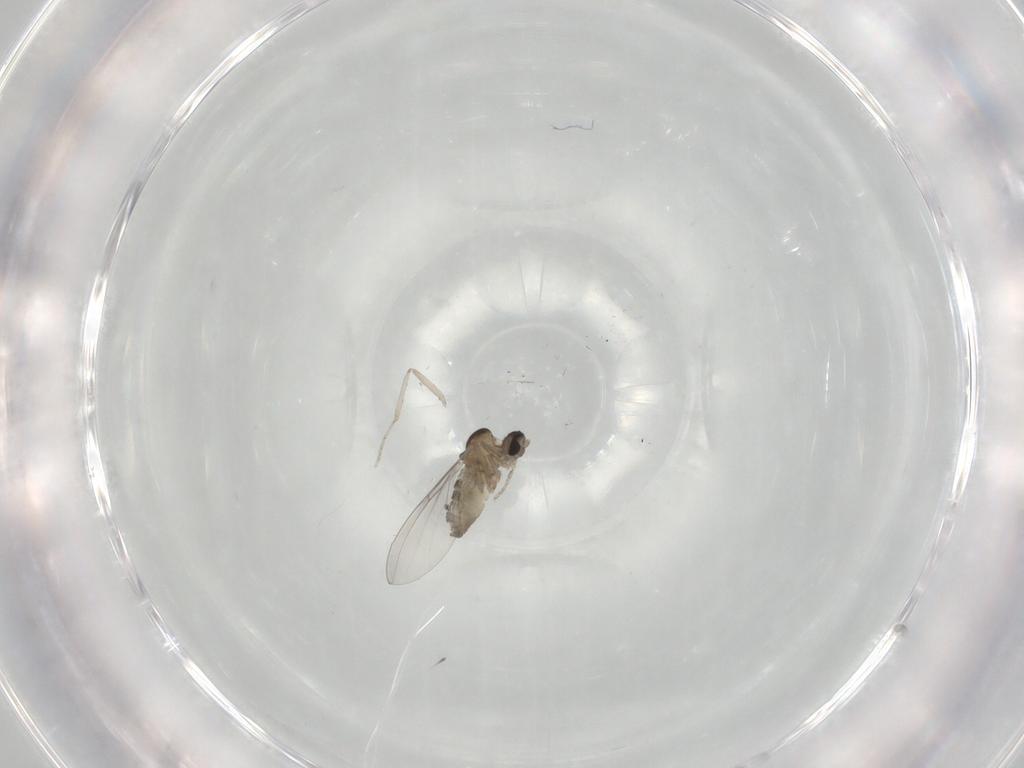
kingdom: Animalia
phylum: Arthropoda
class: Insecta
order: Diptera
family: Cecidomyiidae
